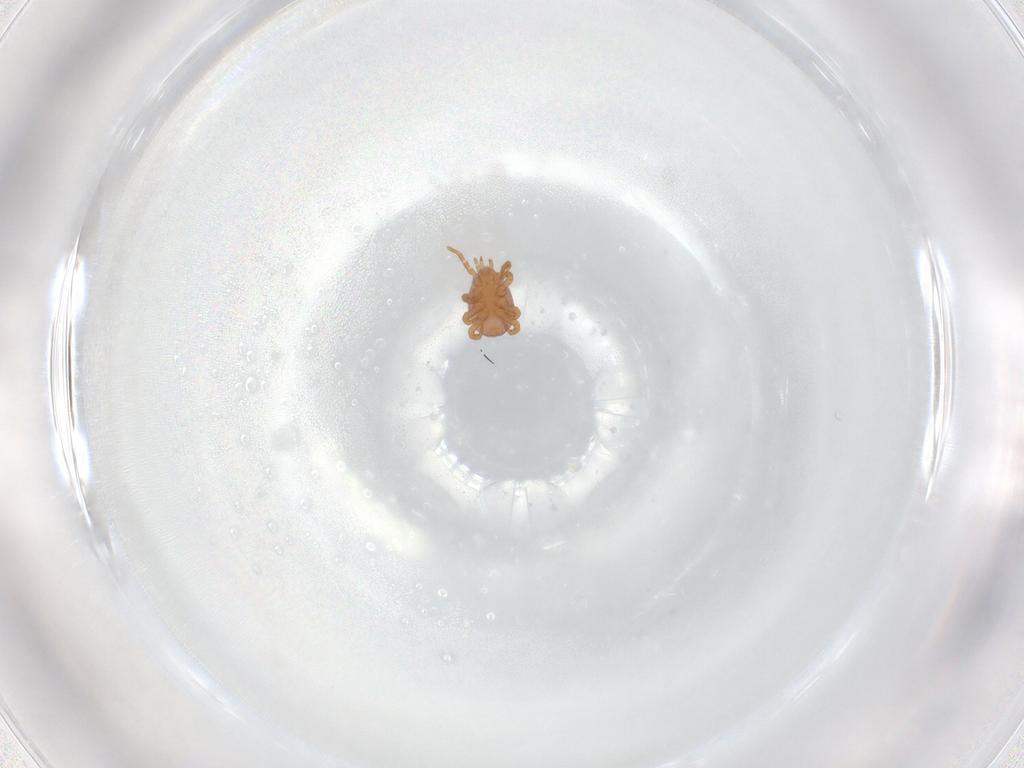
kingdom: Animalia
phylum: Arthropoda
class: Arachnida
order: Mesostigmata
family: Eviphididae
